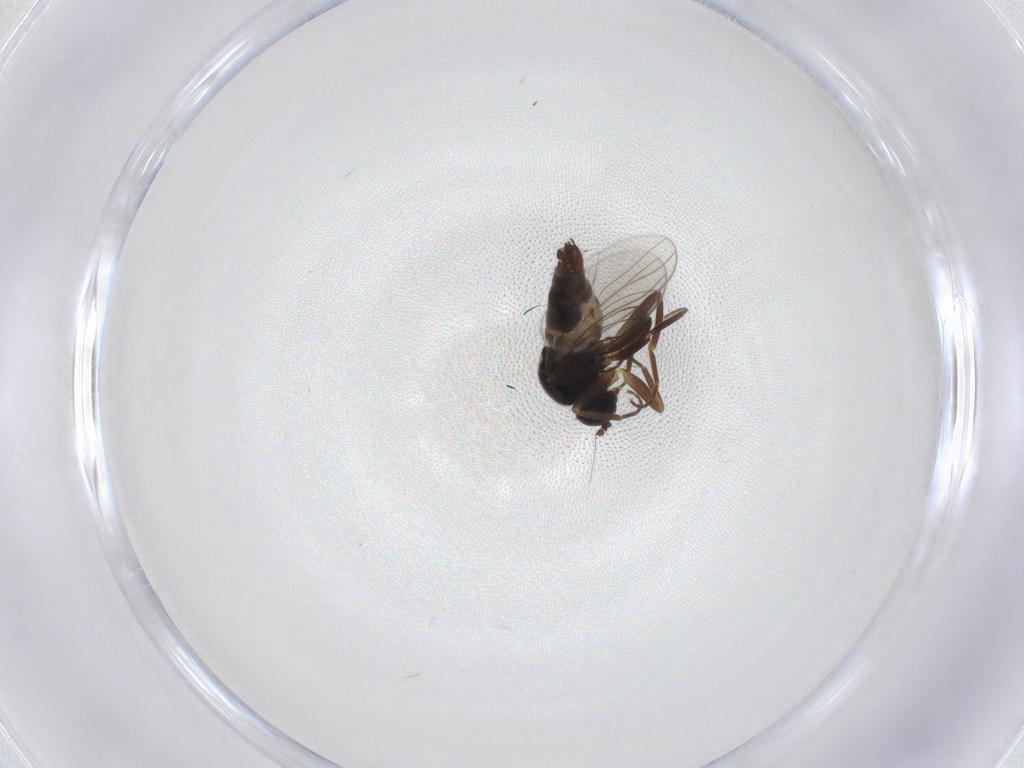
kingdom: Animalia
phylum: Arthropoda
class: Insecta
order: Diptera
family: Hybotidae
